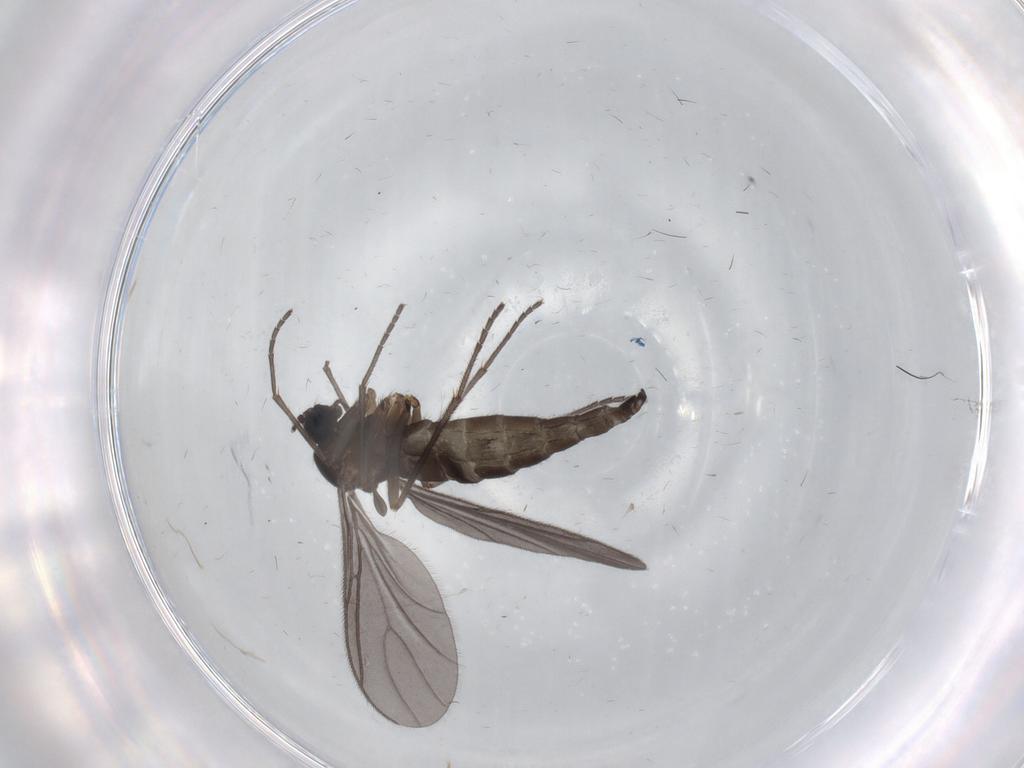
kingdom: Animalia
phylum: Arthropoda
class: Insecta
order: Diptera
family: Sciaridae
